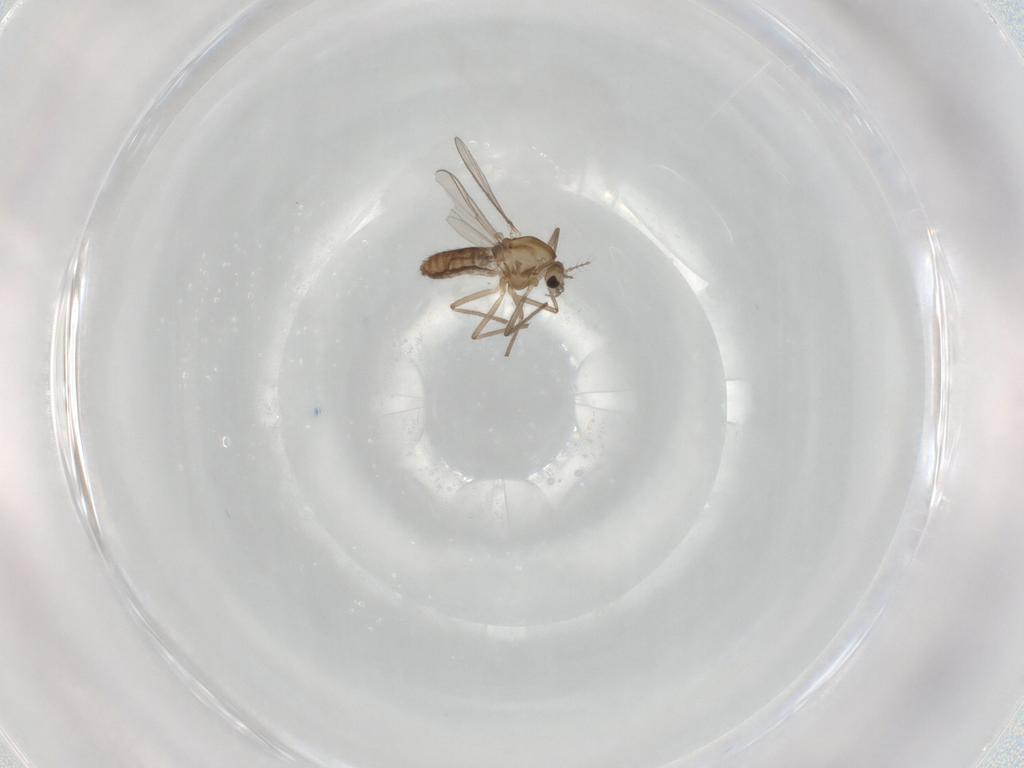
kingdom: Animalia
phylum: Arthropoda
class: Insecta
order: Diptera
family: Chironomidae
